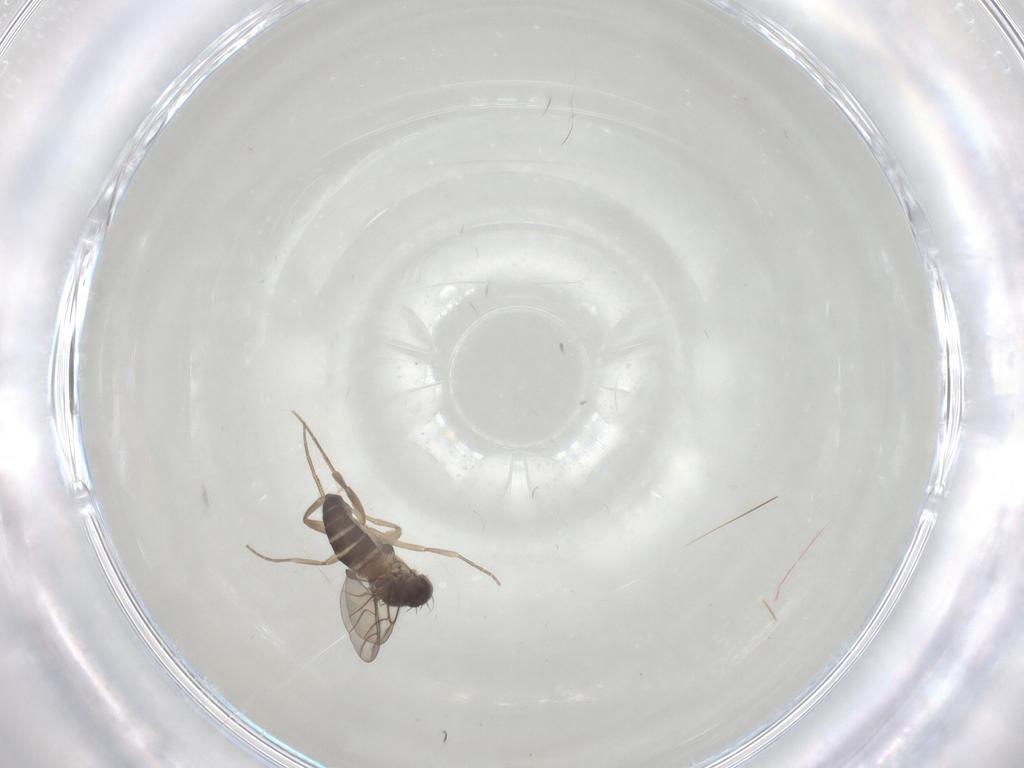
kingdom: Animalia
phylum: Arthropoda
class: Insecta
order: Diptera
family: Phoridae
